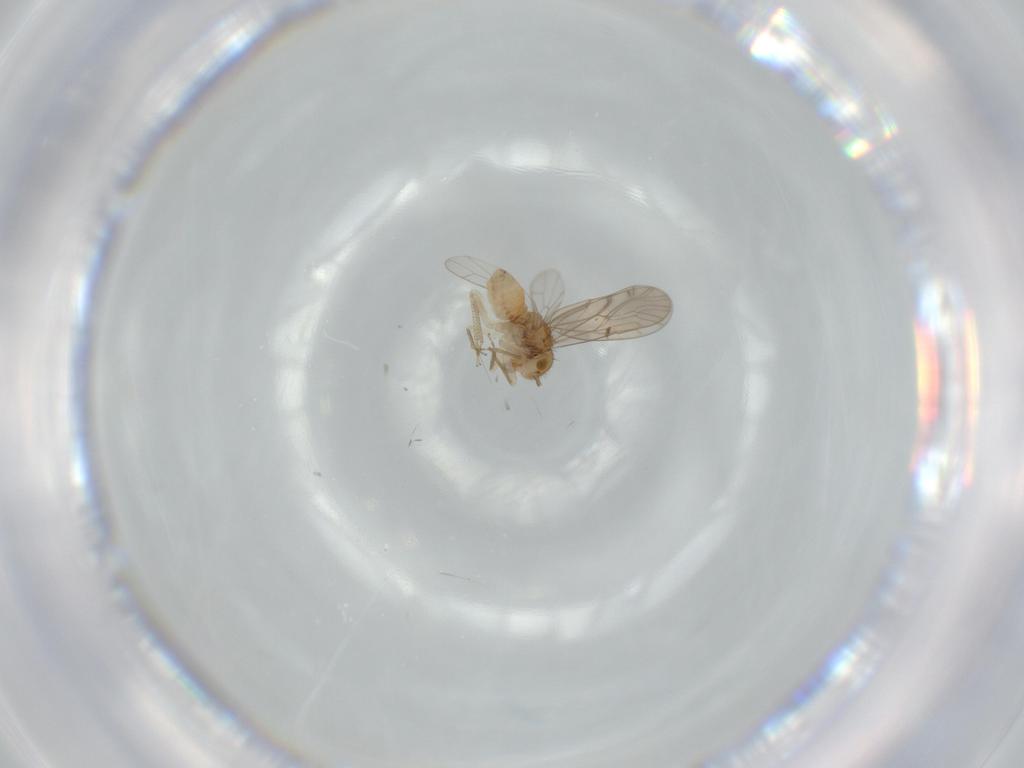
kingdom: Animalia
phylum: Arthropoda
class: Insecta
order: Psocodea
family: Ectopsocidae
